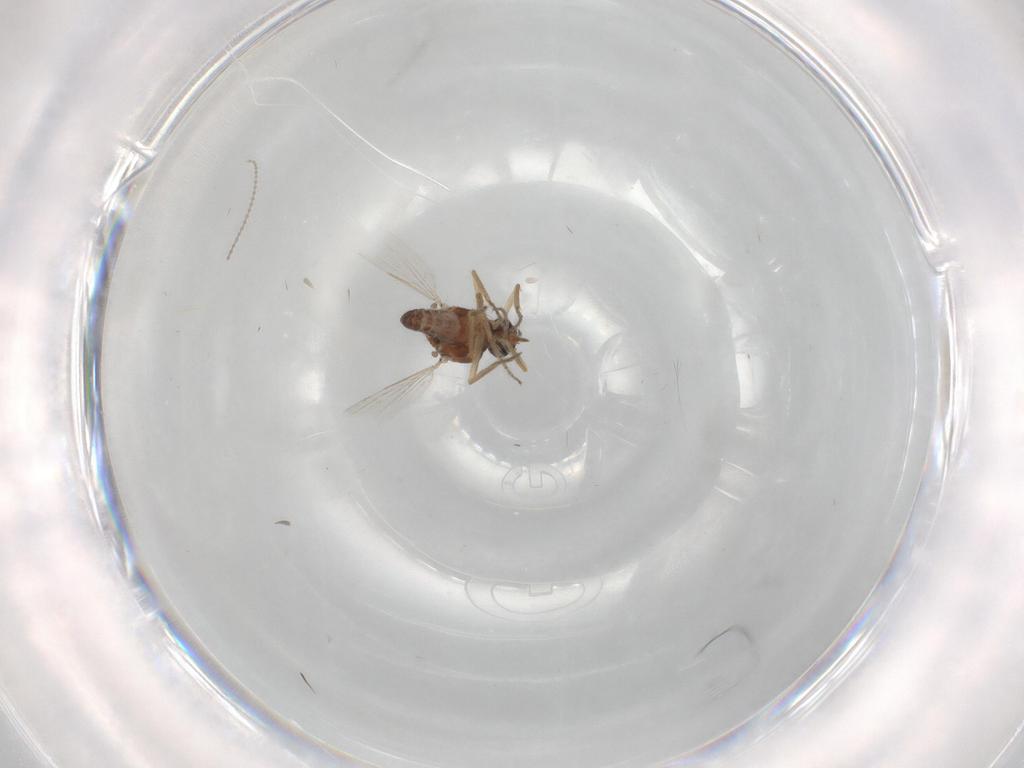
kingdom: Animalia
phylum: Arthropoda
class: Insecta
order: Diptera
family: Ceratopogonidae
